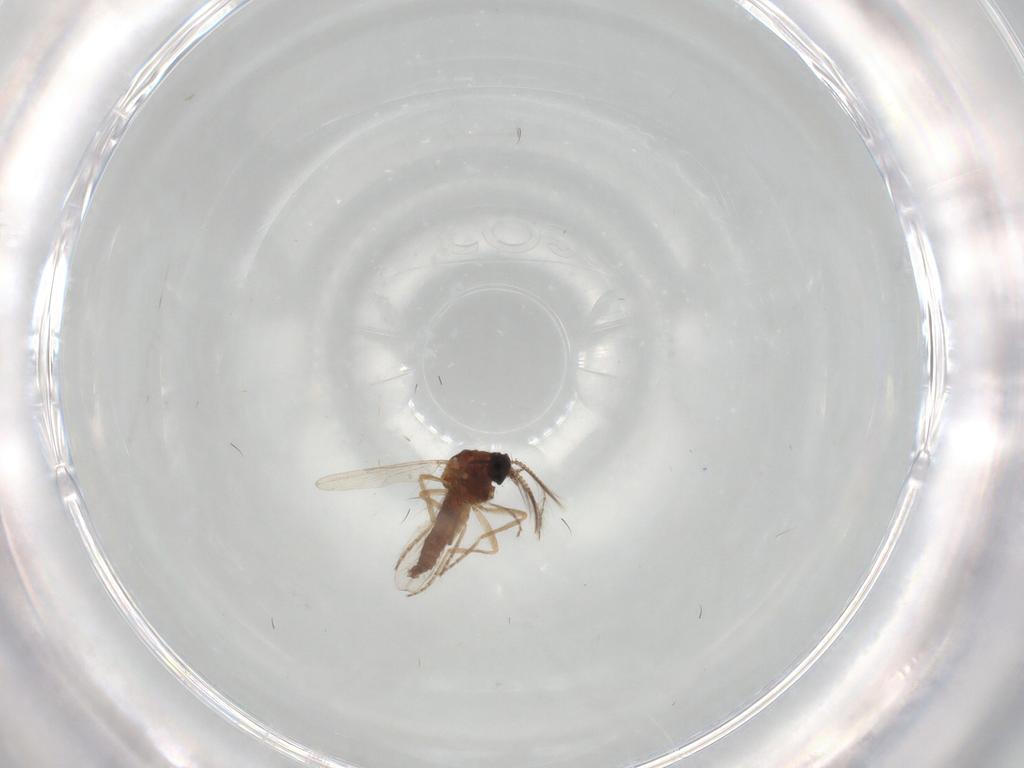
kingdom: Animalia
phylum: Arthropoda
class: Insecta
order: Diptera
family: Ceratopogonidae
